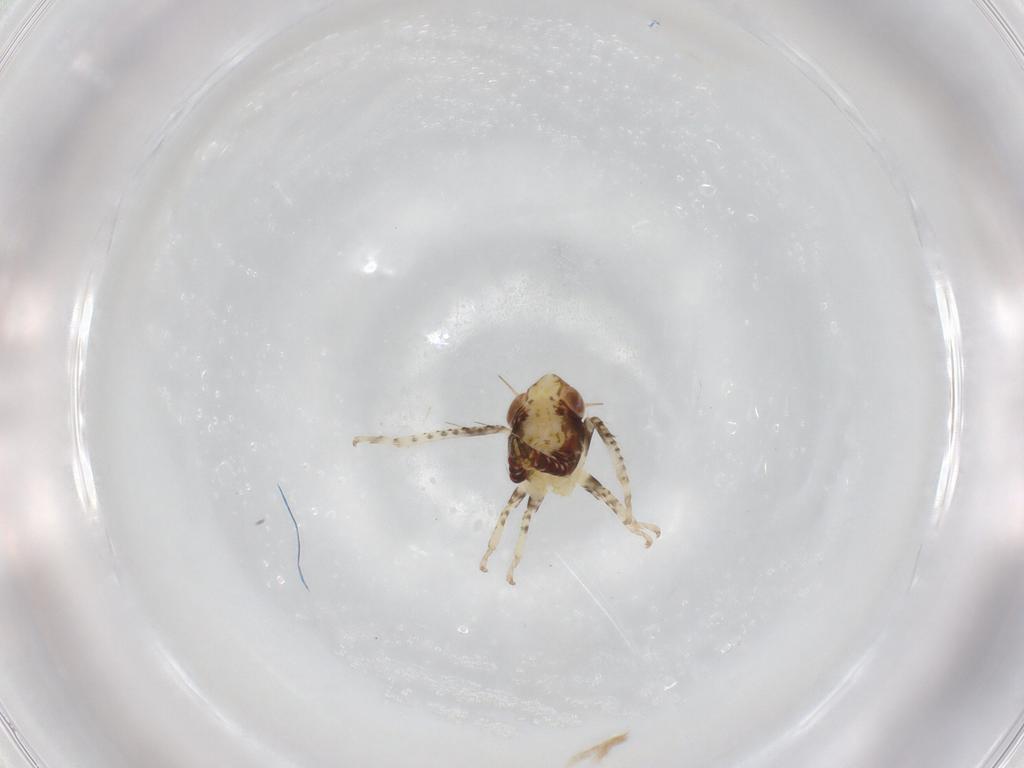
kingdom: Animalia
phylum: Arthropoda
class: Insecta
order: Hemiptera
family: Cicadellidae
